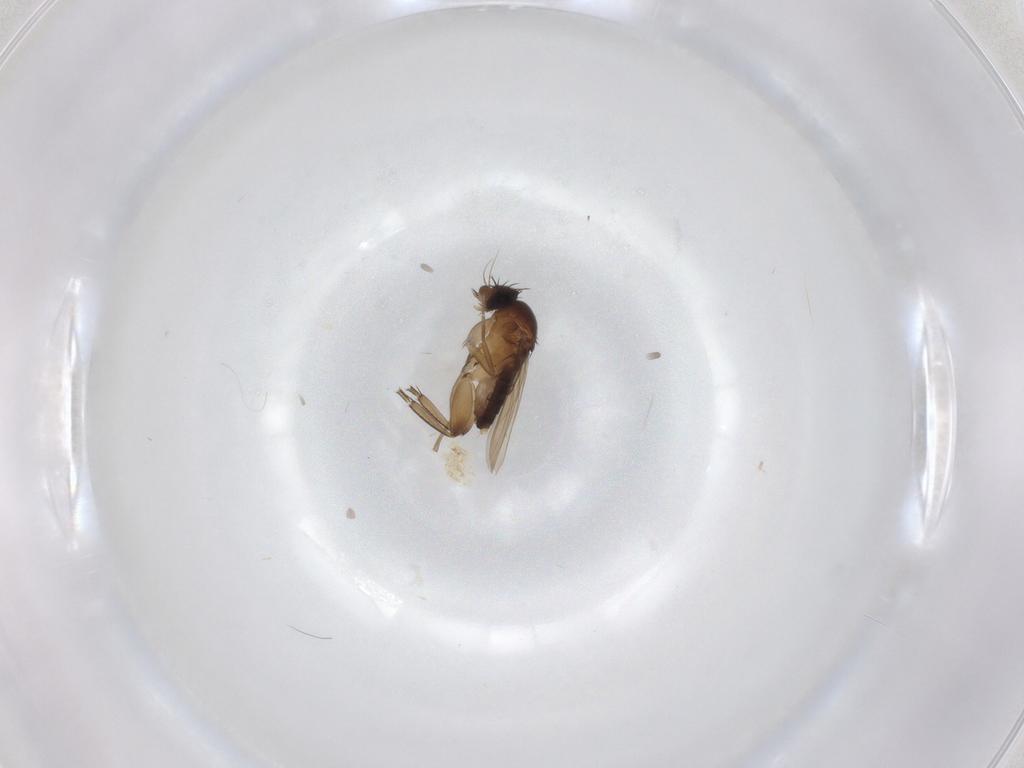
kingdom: Animalia
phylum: Arthropoda
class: Insecta
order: Diptera
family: Phoridae
